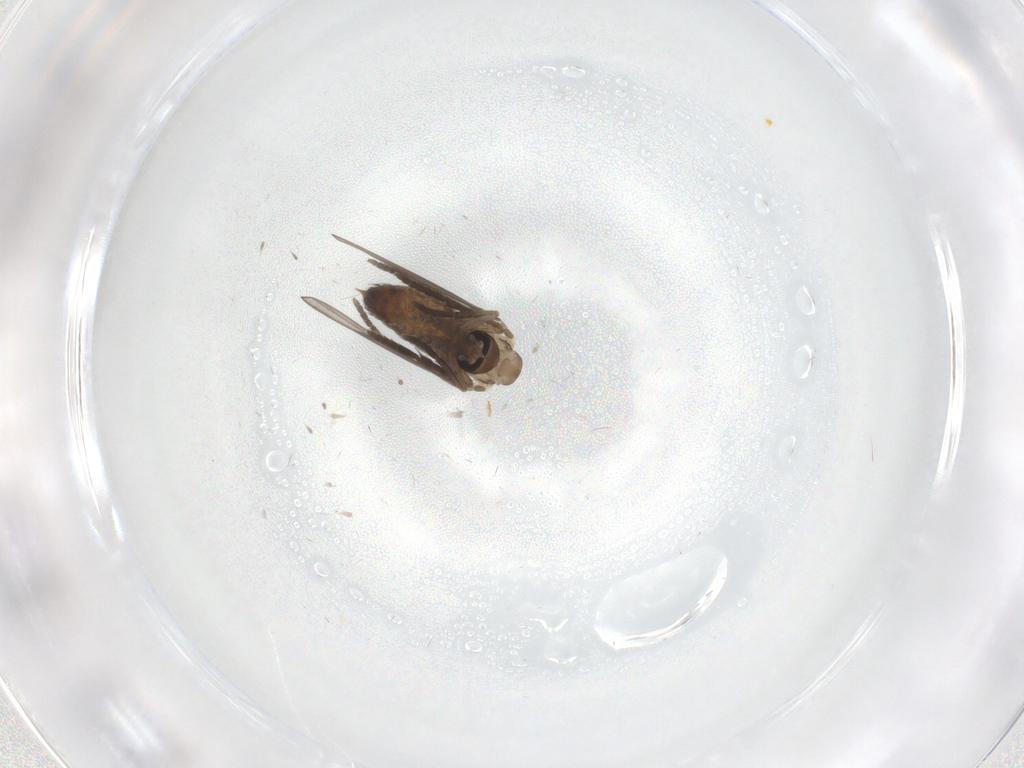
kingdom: Animalia
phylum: Arthropoda
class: Insecta
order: Diptera
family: Psychodidae
